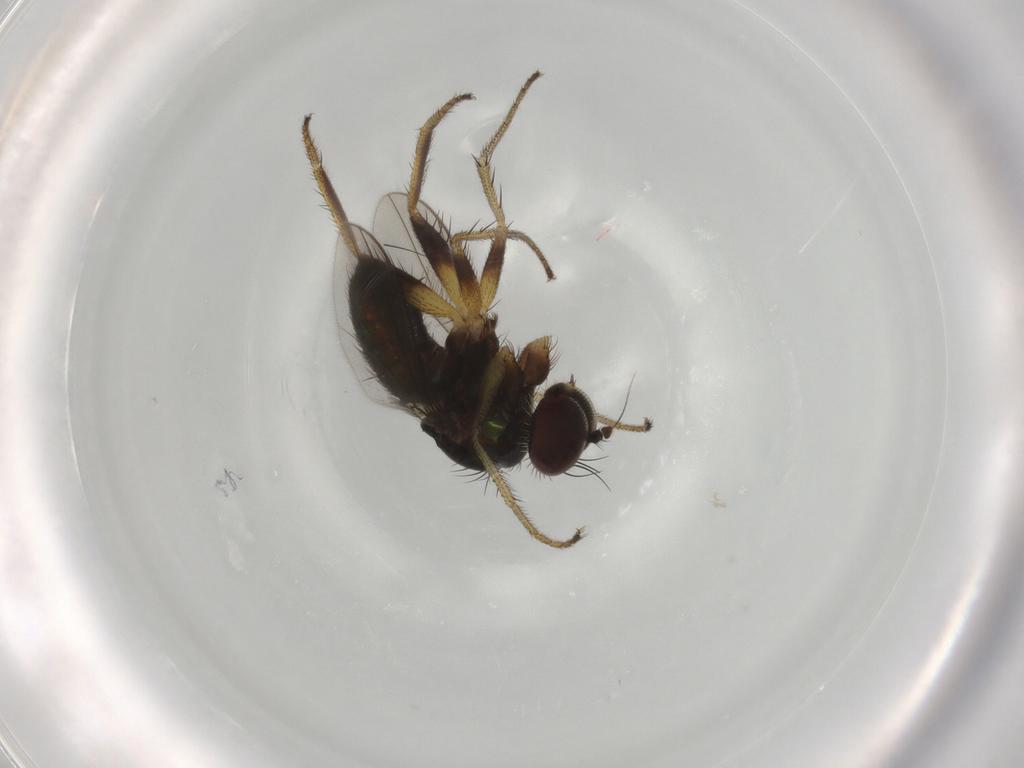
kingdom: Animalia
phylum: Arthropoda
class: Insecta
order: Diptera
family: Dolichopodidae
